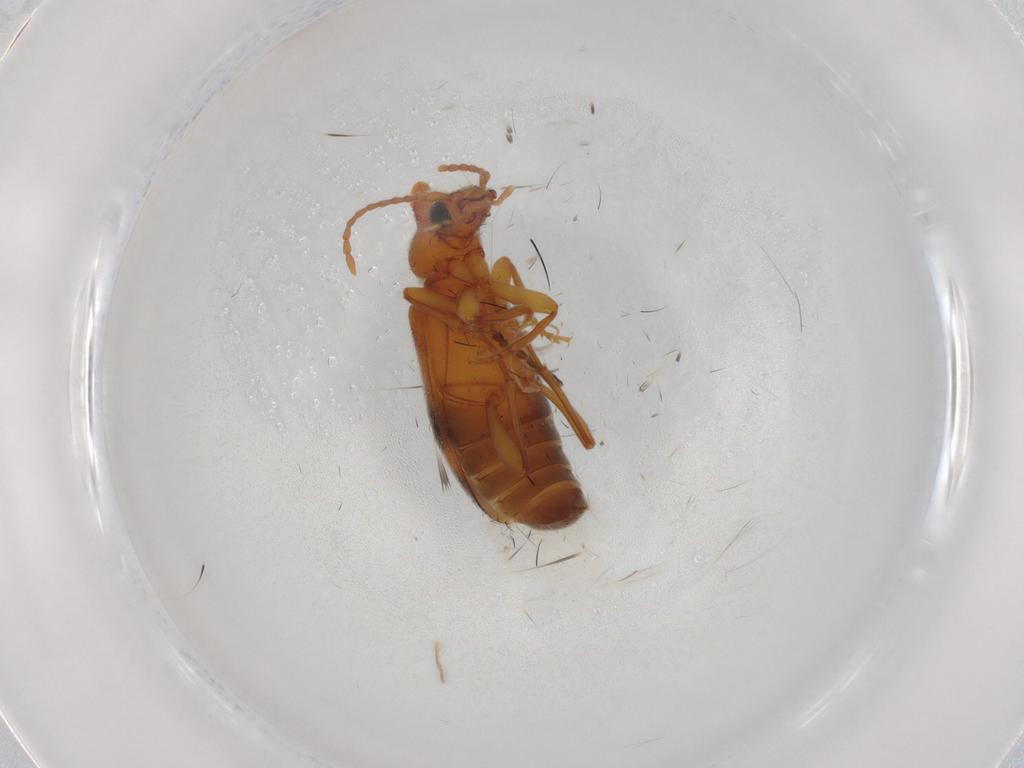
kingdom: Animalia
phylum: Arthropoda
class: Insecta
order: Coleoptera
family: Anthicidae
